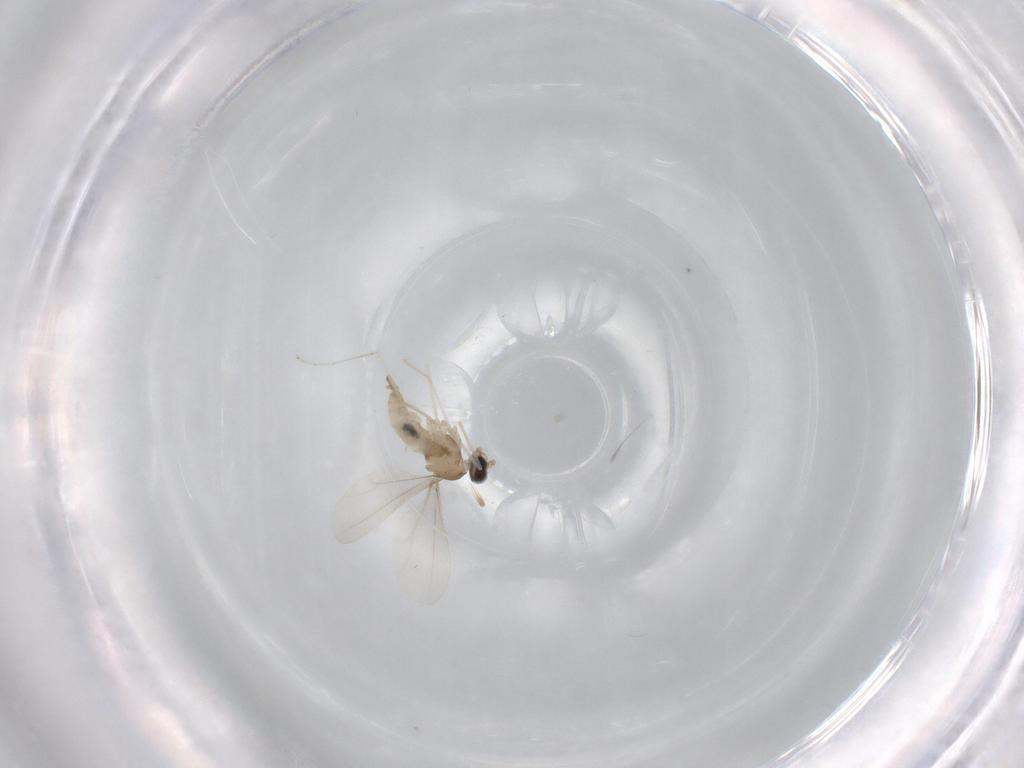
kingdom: Animalia
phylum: Arthropoda
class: Insecta
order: Diptera
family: Cecidomyiidae
